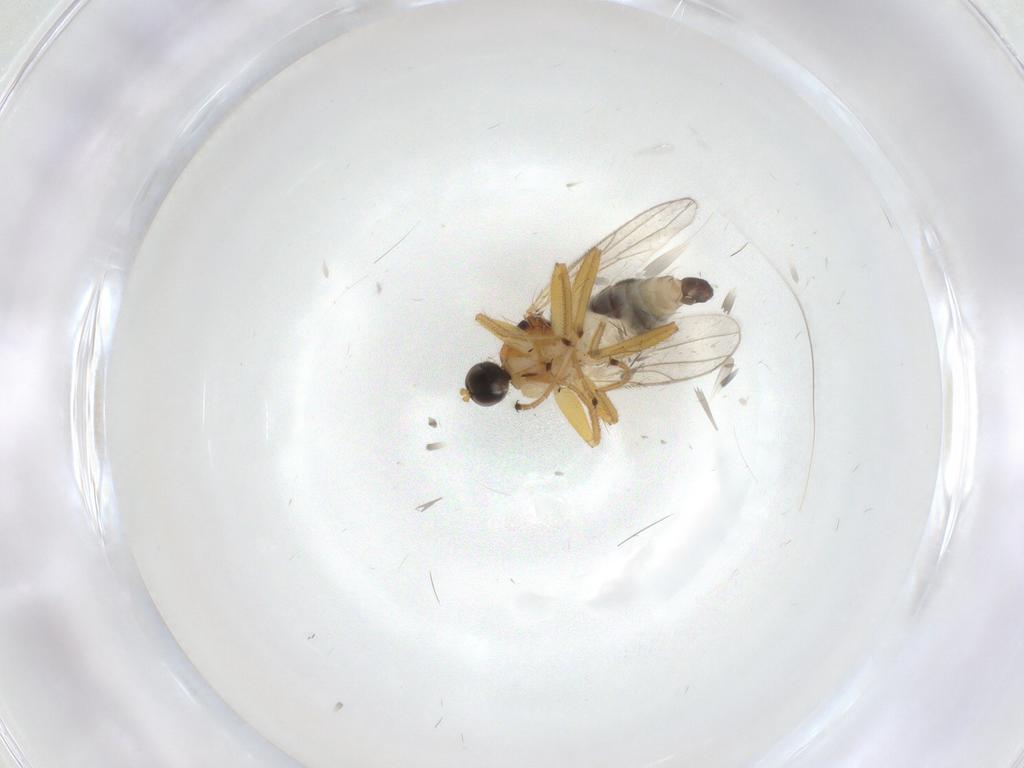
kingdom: Animalia
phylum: Arthropoda
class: Insecta
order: Diptera
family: Hybotidae
